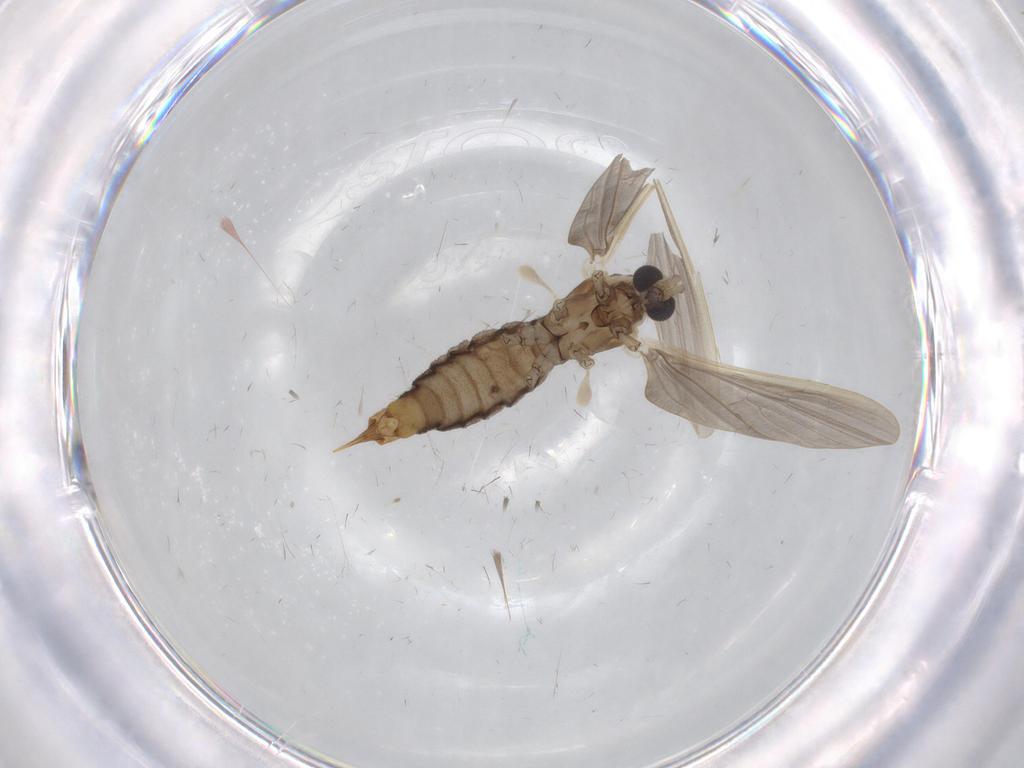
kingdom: Animalia
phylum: Arthropoda
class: Insecta
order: Diptera
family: Limoniidae
